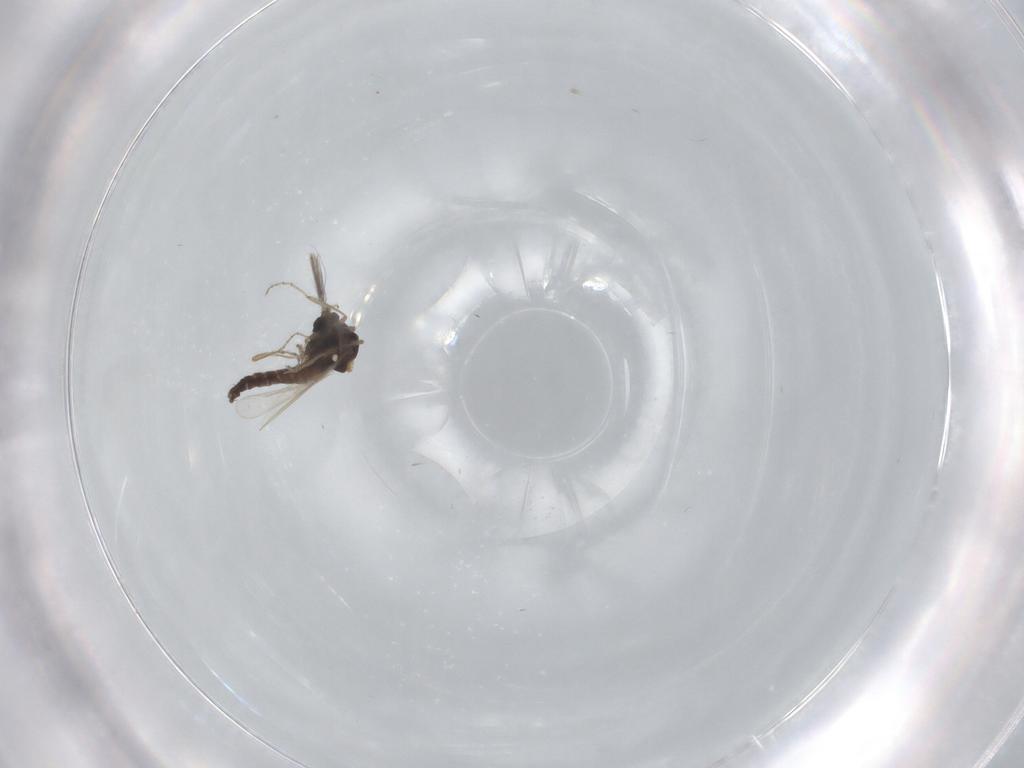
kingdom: Animalia
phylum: Arthropoda
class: Insecta
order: Diptera
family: Ceratopogonidae
